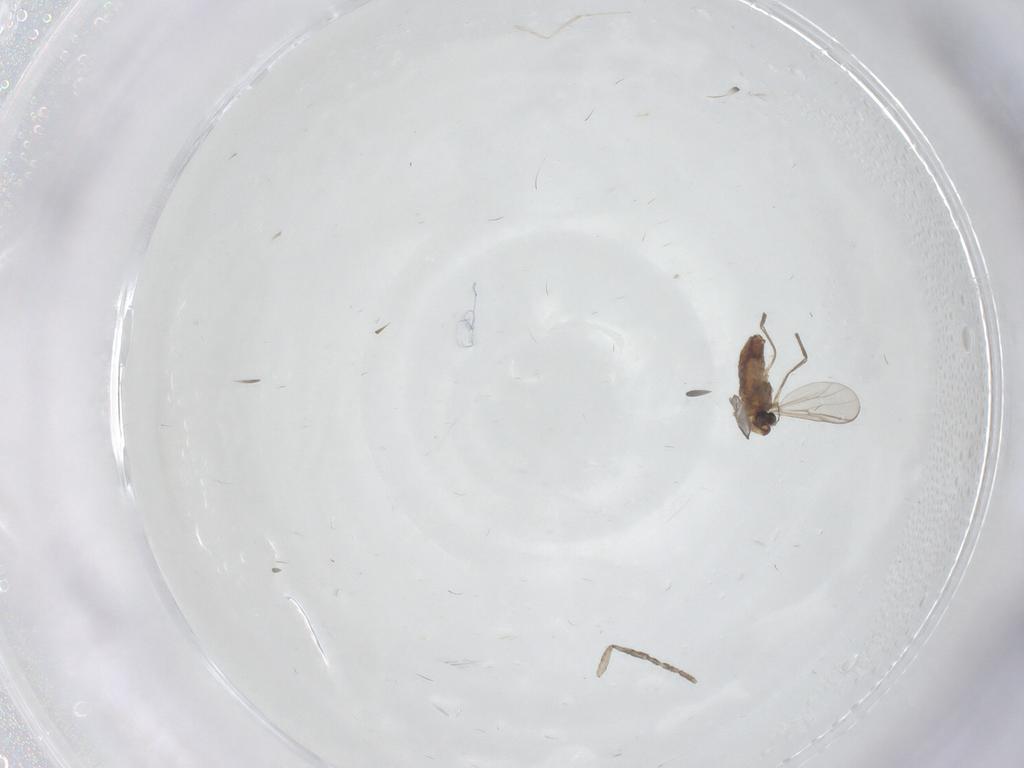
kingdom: Animalia
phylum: Arthropoda
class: Insecta
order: Diptera
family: Chironomidae
